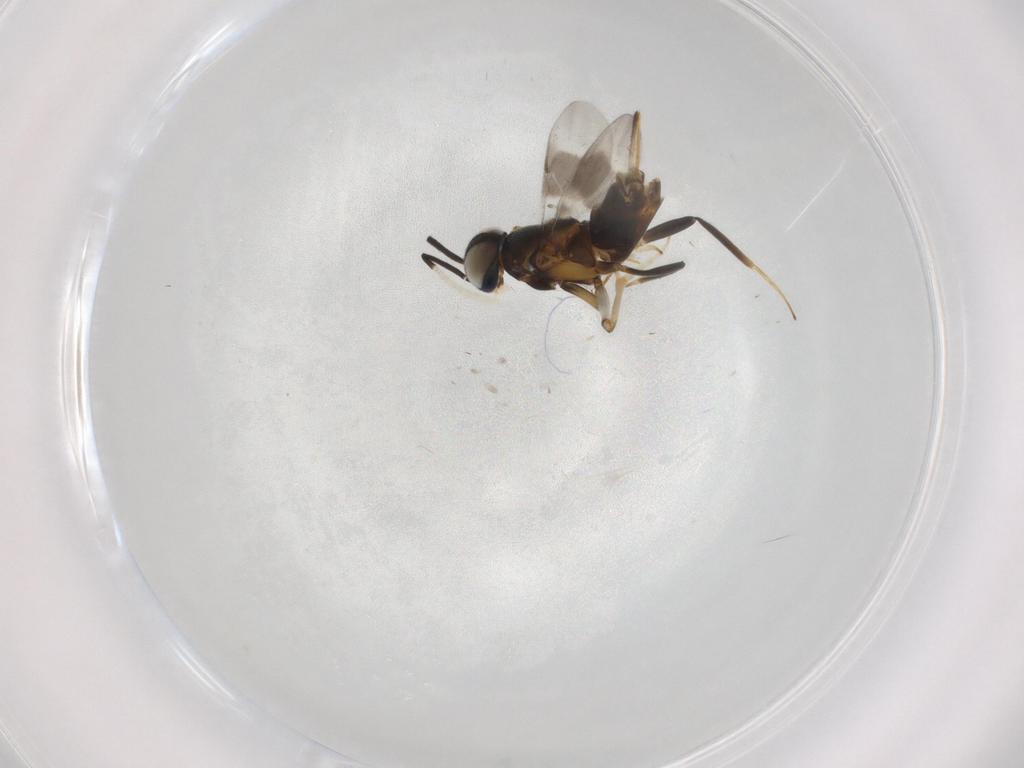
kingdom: Animalia
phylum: Arthropoda
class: Insecta
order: Hymenoptera
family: Encyrtidae
